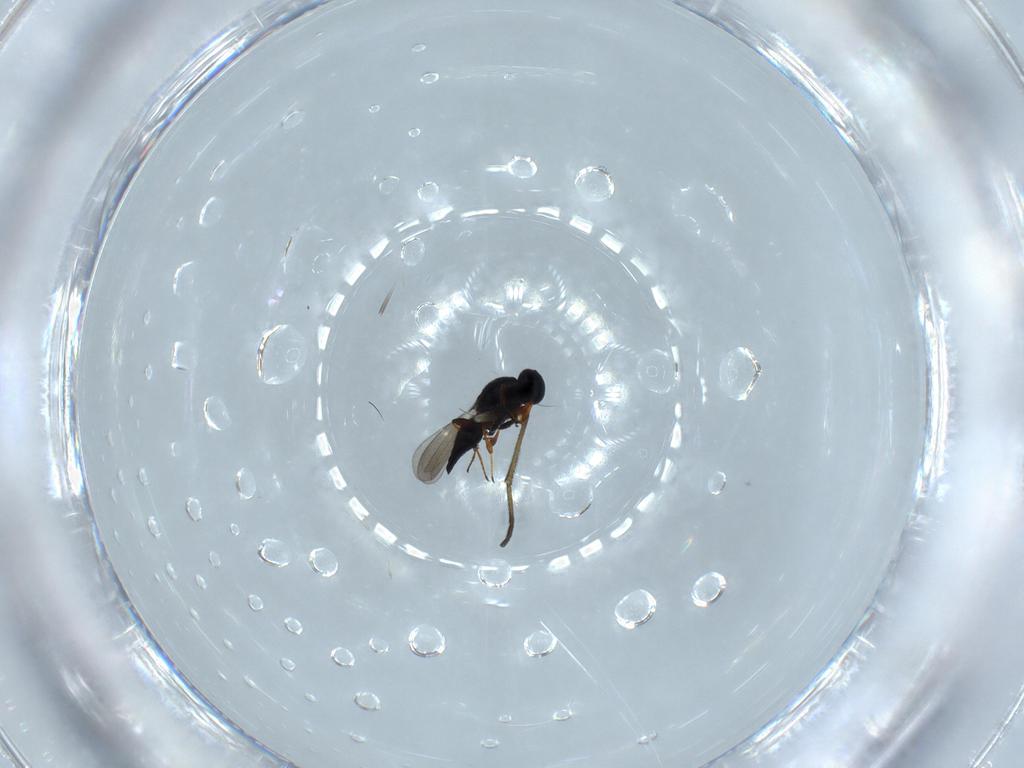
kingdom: Animalia
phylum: Arthropoda
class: Insecta
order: Hymenoptera
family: Platygastridae
